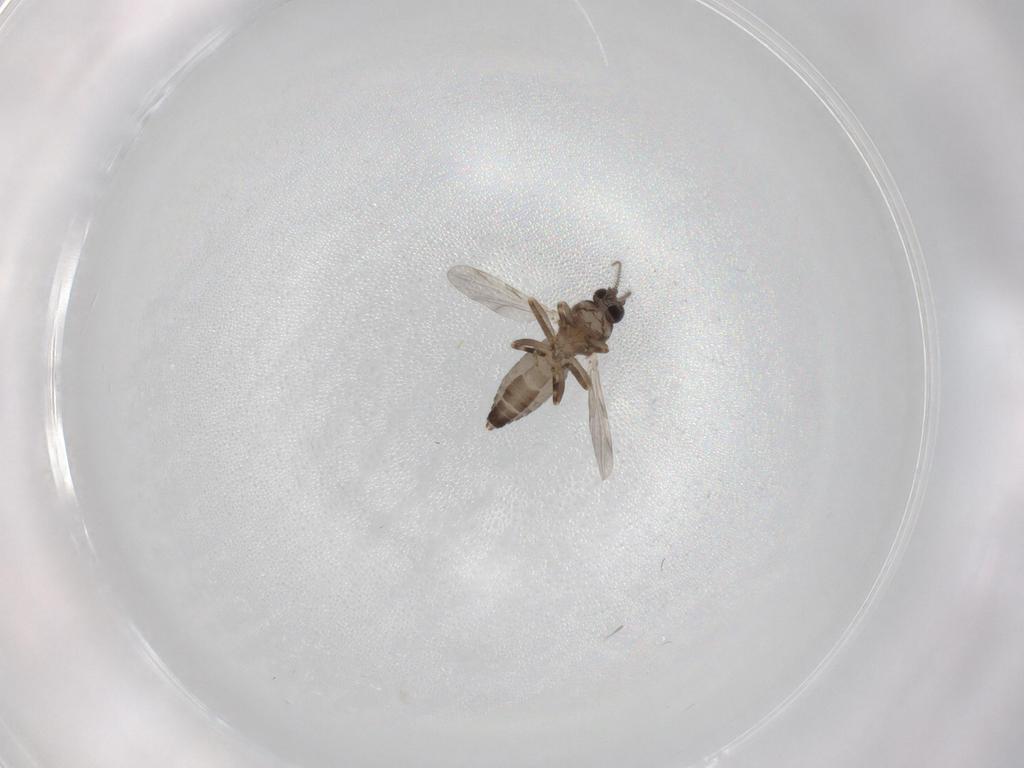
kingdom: Animalia
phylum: Arthropoda
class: Insecta
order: Diptera
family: Ceratopogonidae
